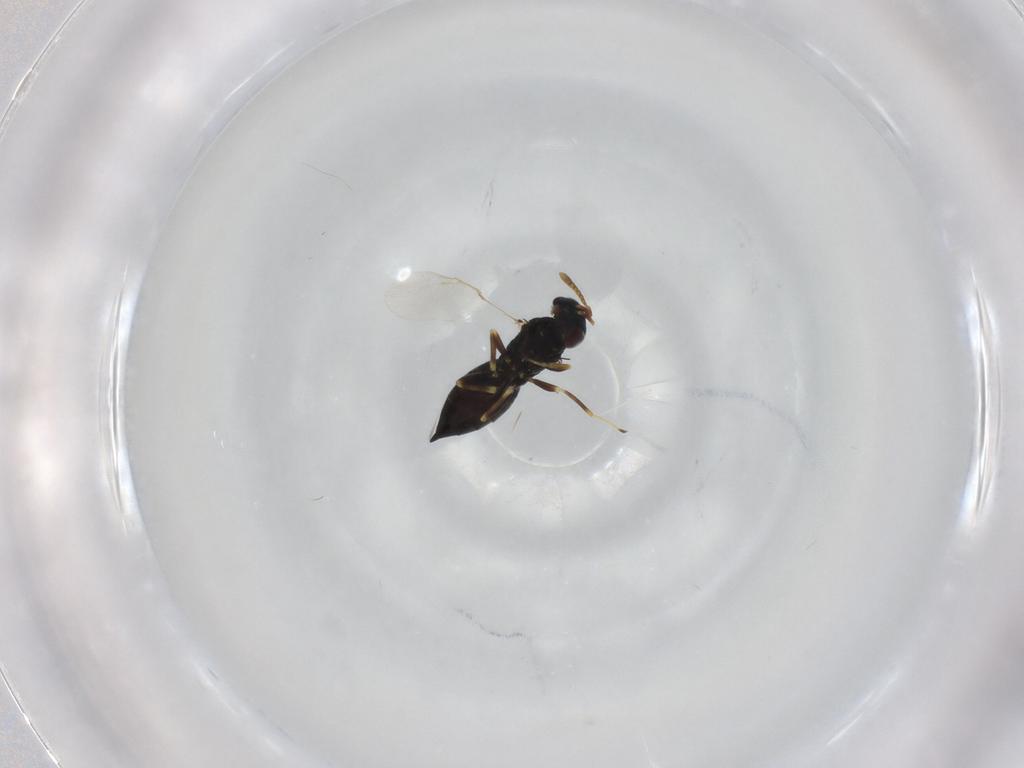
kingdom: Animalia
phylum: Arthropoda
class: Insecta
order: Hymenoptera
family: Pteromalidae
